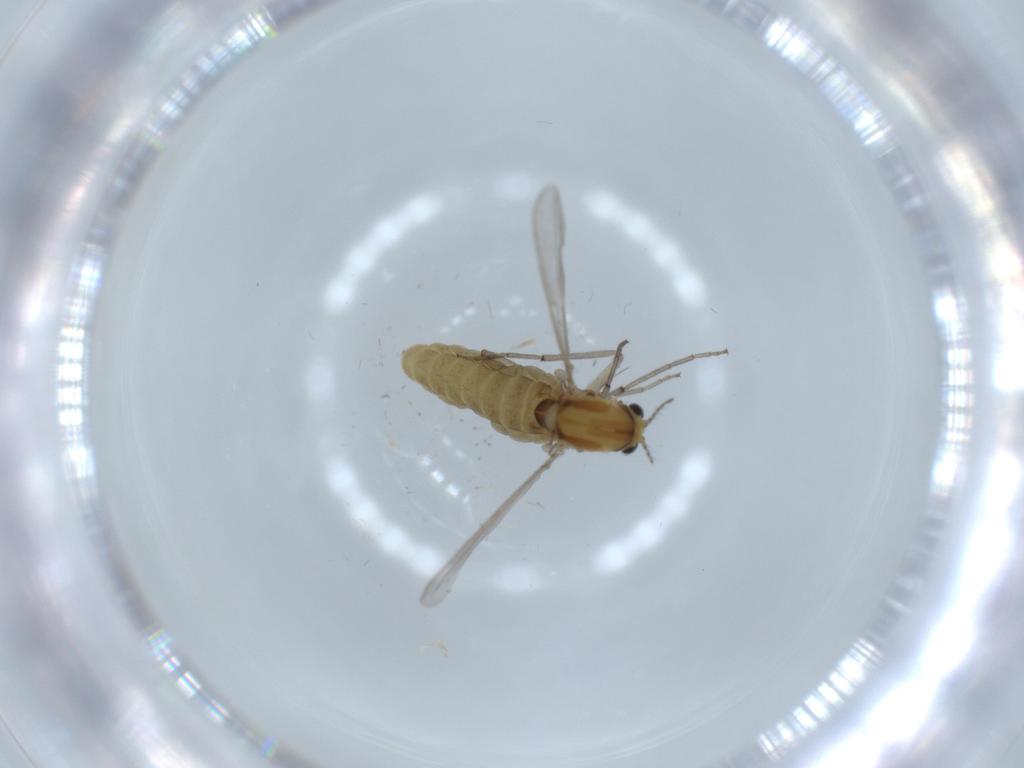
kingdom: Animalia
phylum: Arthropoda
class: Insecta
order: Diptera
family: Chironomidae
